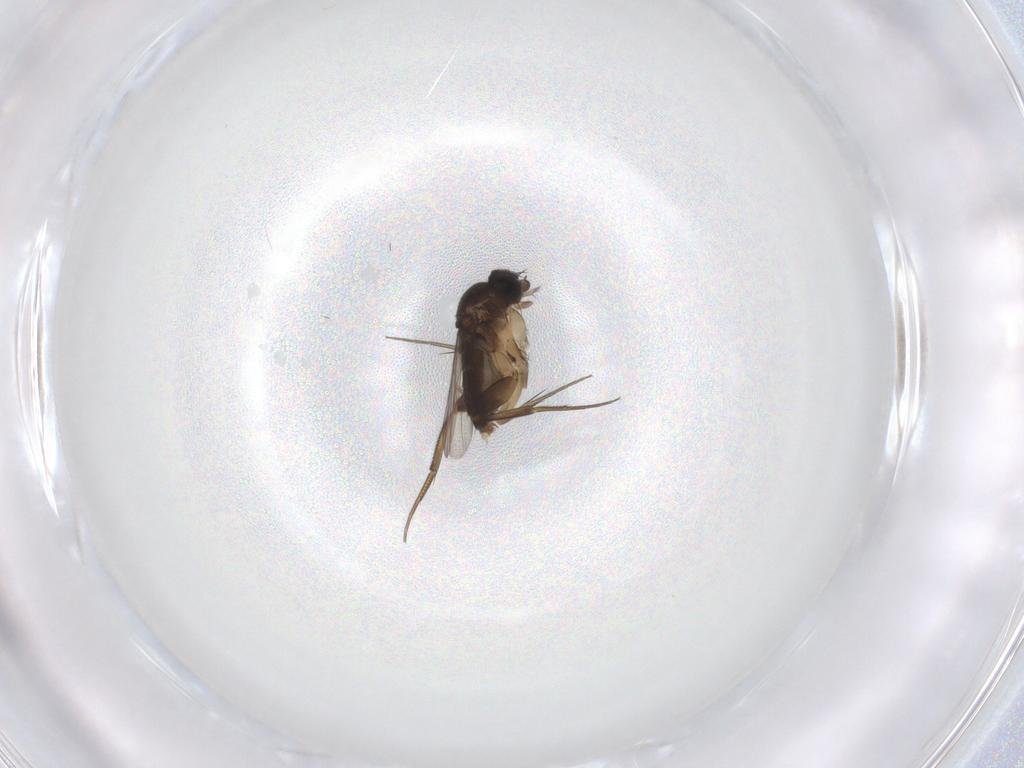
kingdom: Animalia
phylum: Arthropoda
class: Insecta
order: Diptera
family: Phoridae
